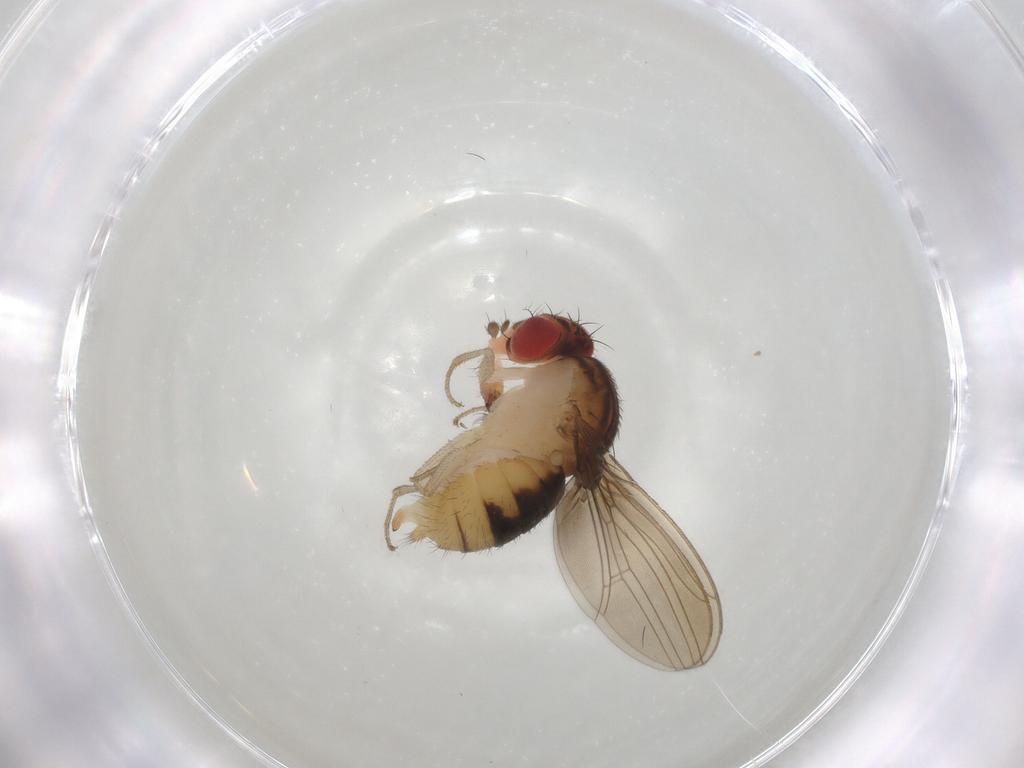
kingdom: Animalia
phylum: Arthropoda
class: Insecta
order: Diptera
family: Drosophilidae
